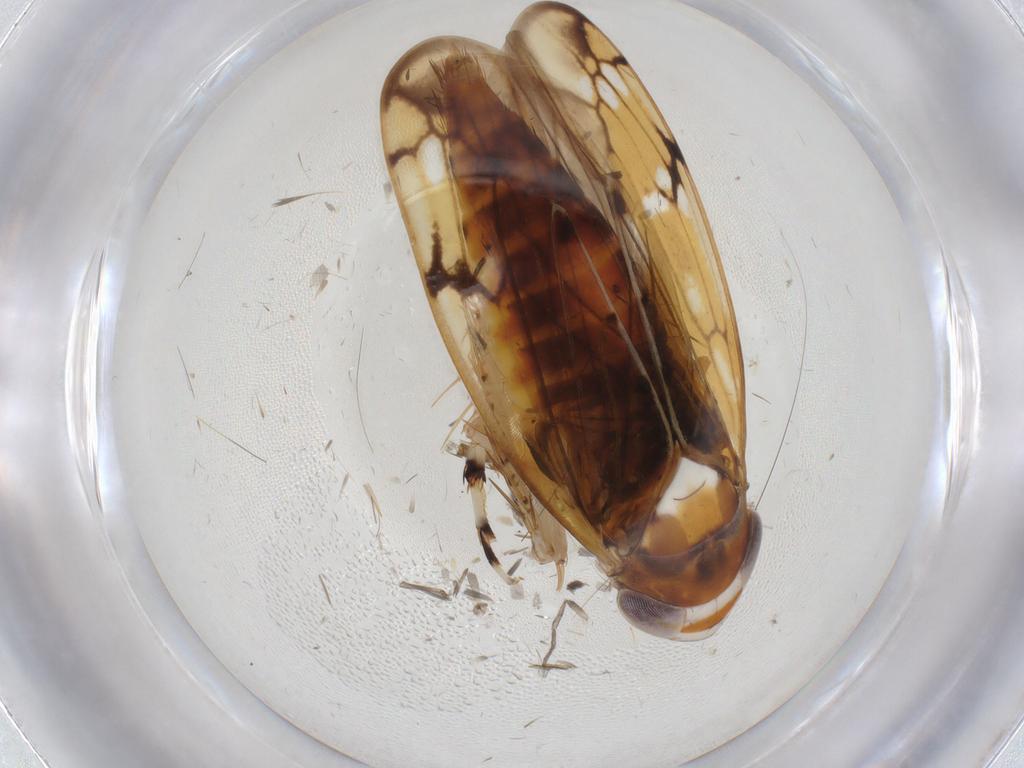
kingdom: Animalia
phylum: Arthropoda
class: Insecta
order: Hemiptera
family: Cicadellidae
